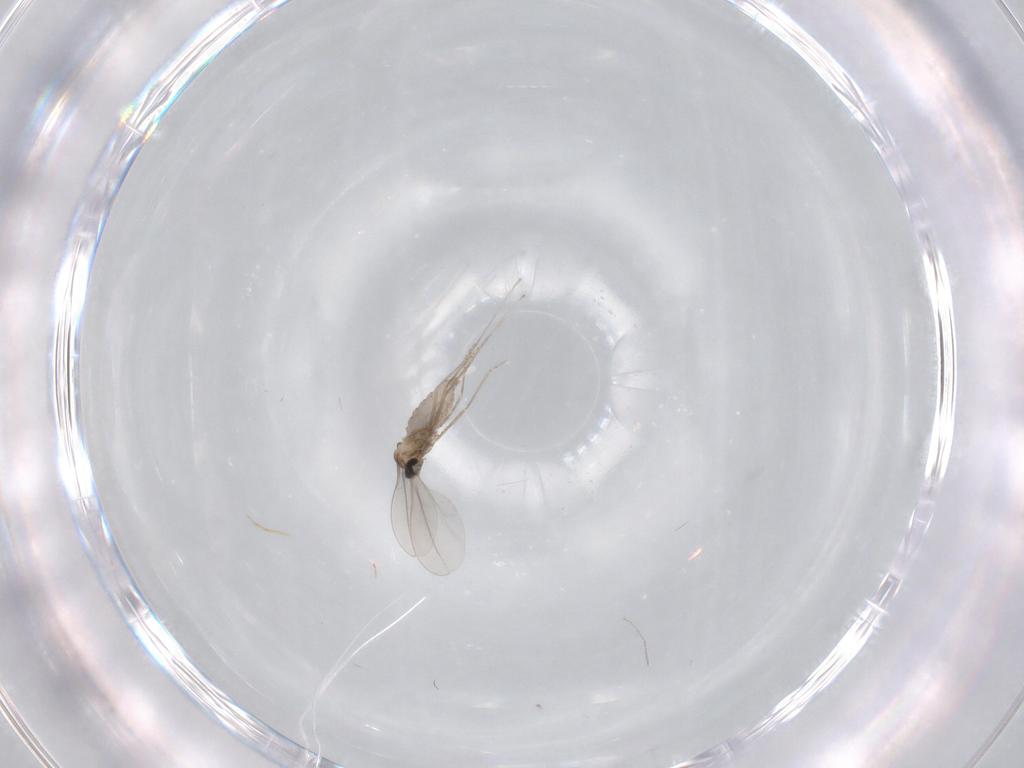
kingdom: Animalia
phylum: Arthropoda
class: Insecta
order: Diptera
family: Cecidomyiidae
